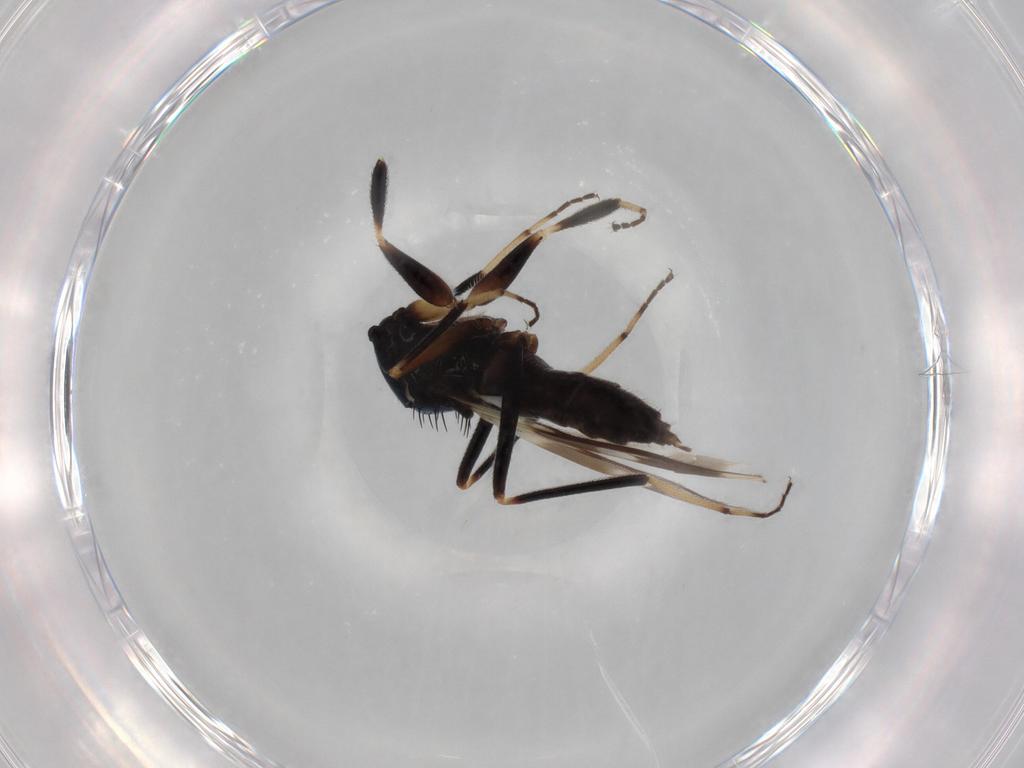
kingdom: Animalia
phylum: Arthropoda
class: Insecta
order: Diptera
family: Hybotidae
